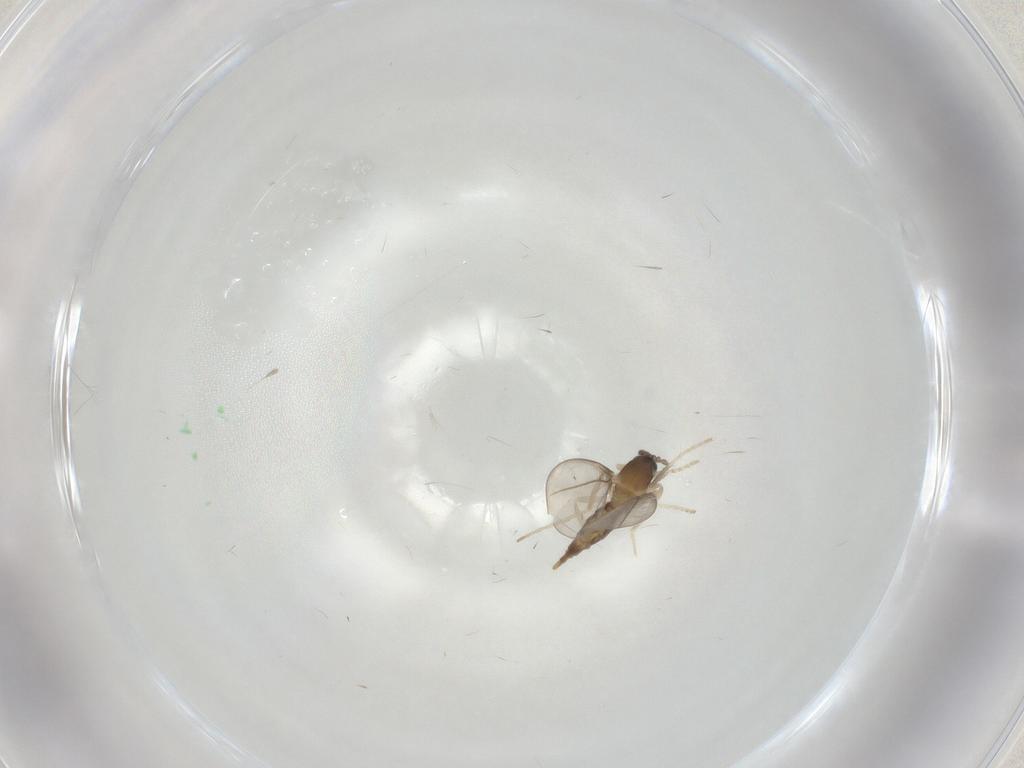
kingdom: Animalia
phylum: Arthropoda
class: Insecta
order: Diptera
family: Cecidomyiidae
